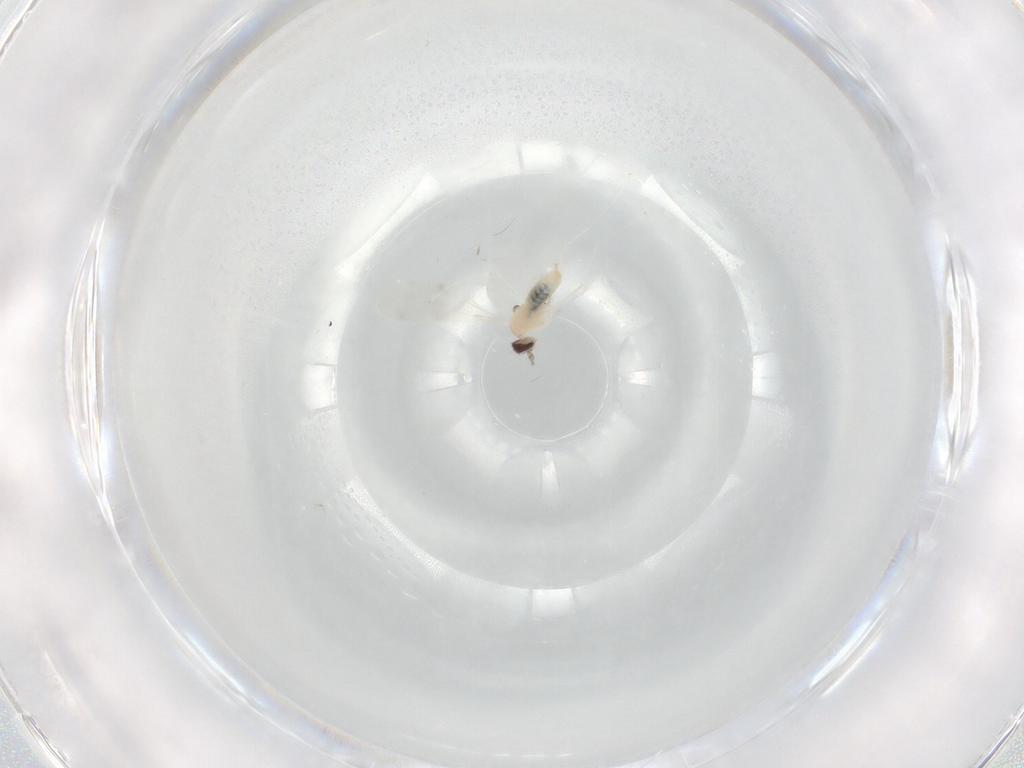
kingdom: Animalia
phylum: Arthropoda
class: Insecta
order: Diptera
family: Cecidomyiidae
